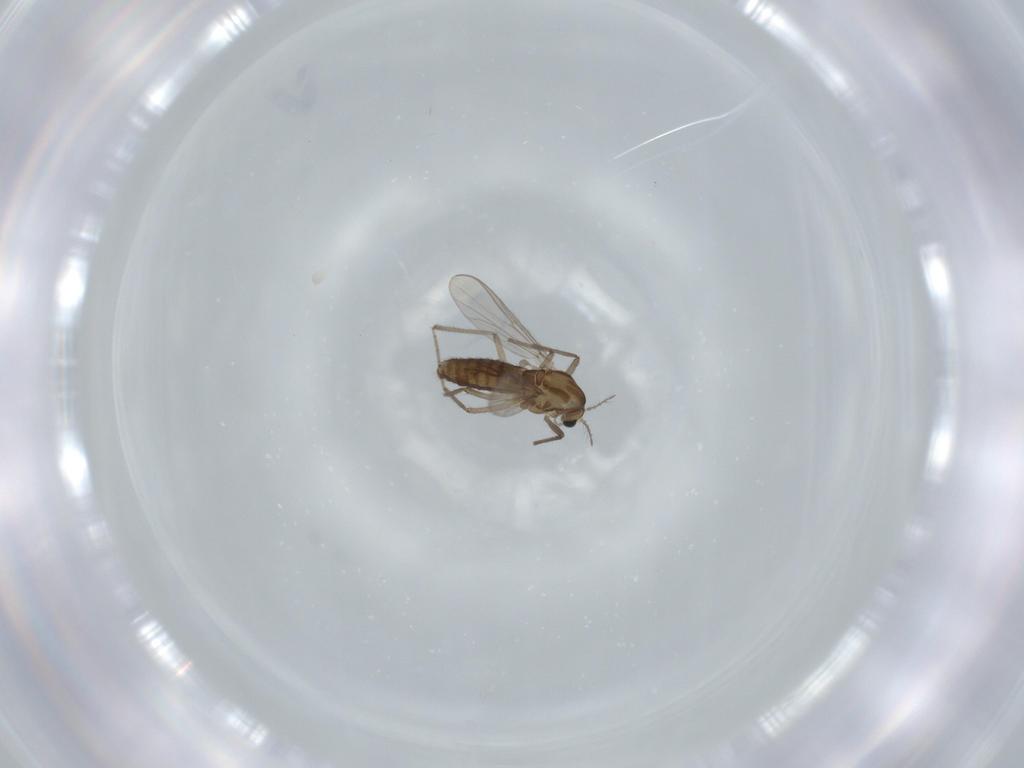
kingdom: Animalia
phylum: Arthropoda
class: Insecta
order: Diptera
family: Chironomidae
